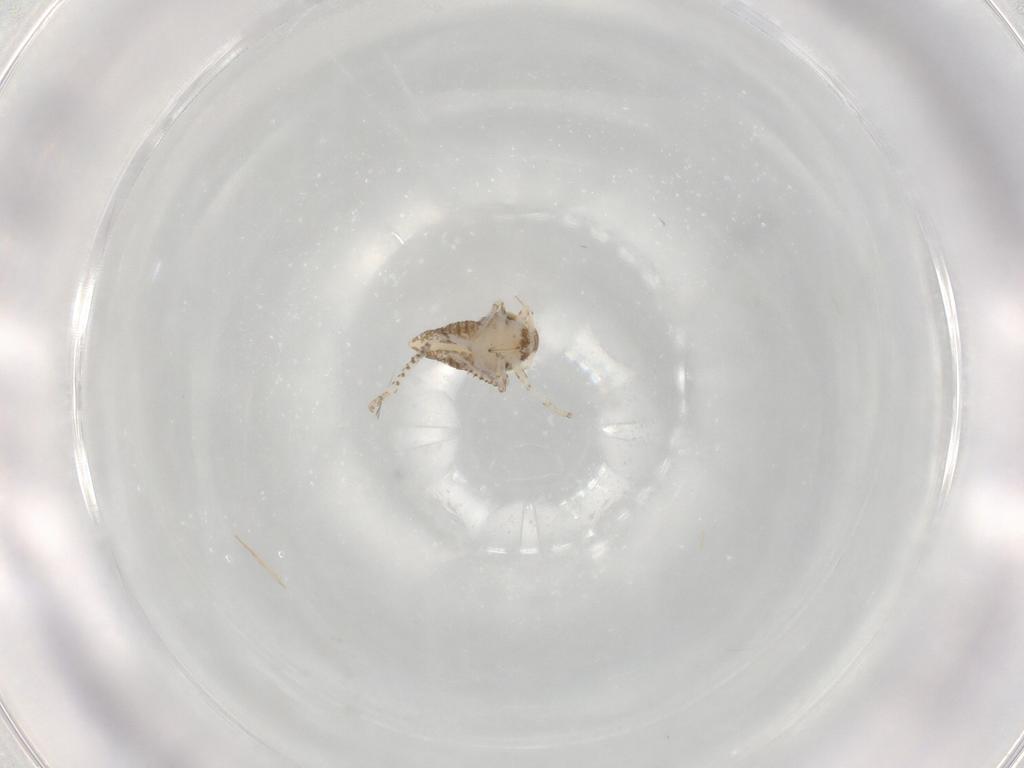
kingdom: Animalia
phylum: Arthropoda
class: Insecta
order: Hemiptera
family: Cicadellidae
